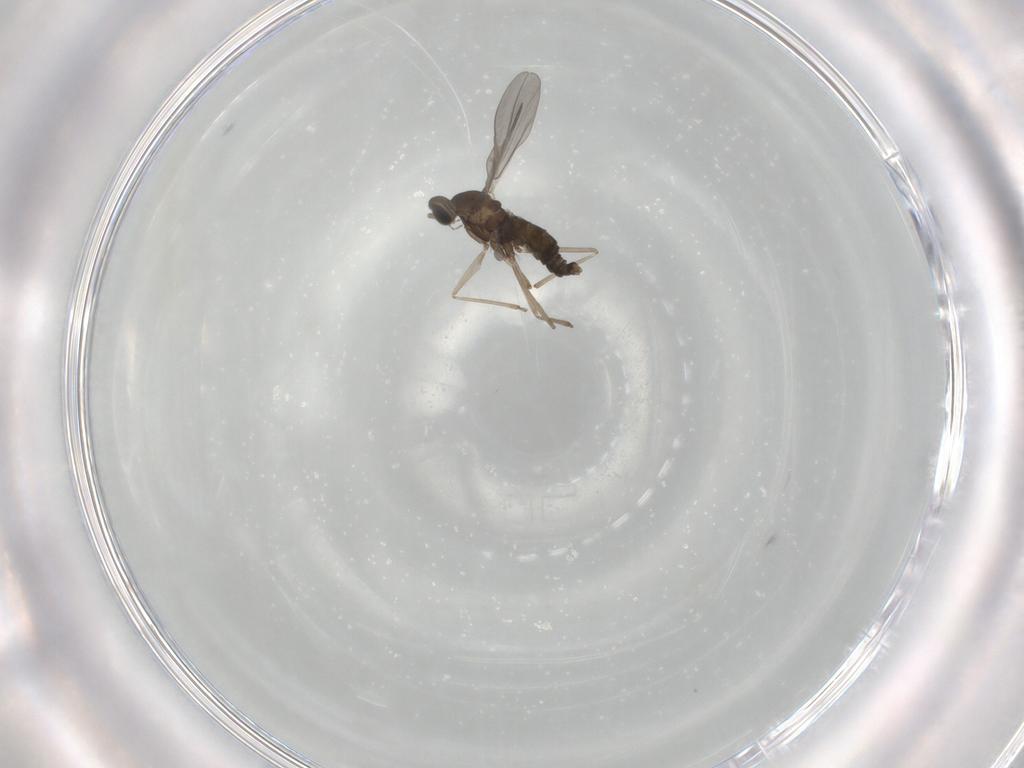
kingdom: Animalia
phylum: Arthropoda
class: Insecta
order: Diptera
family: Cecidomyiidae
